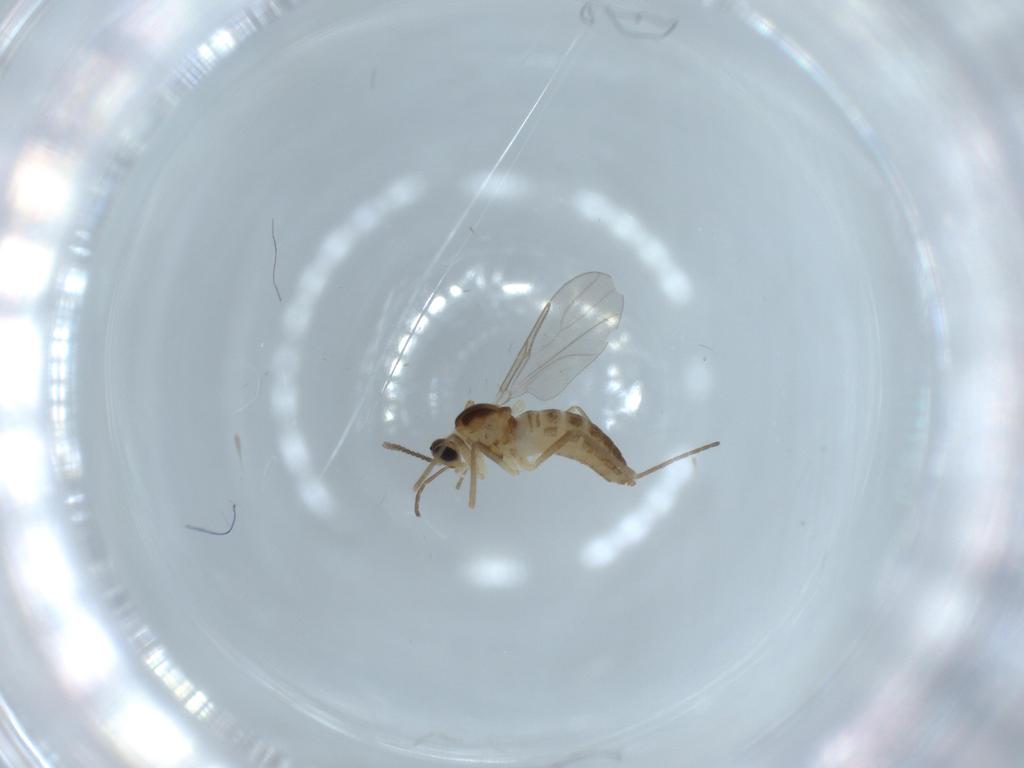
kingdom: Animalia
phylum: Arthropoda
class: Insecta
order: Diptera
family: Cecidomyiidae
